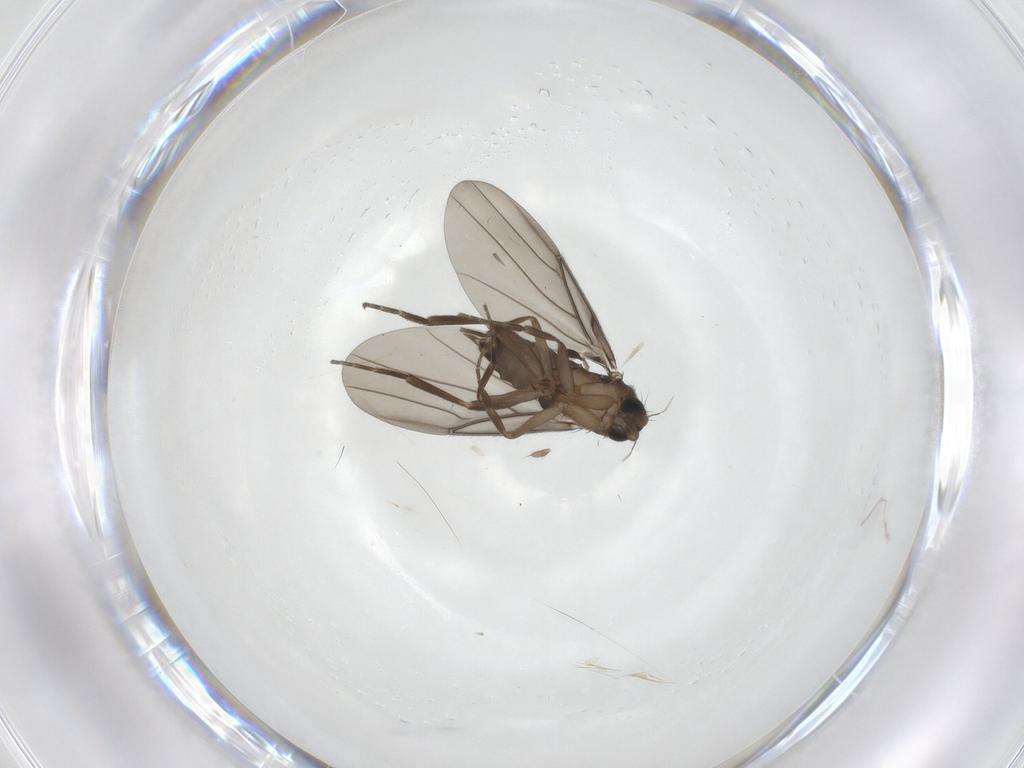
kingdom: Animalia
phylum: Arthropoda
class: Insecta
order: Diptera
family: Phoridae
